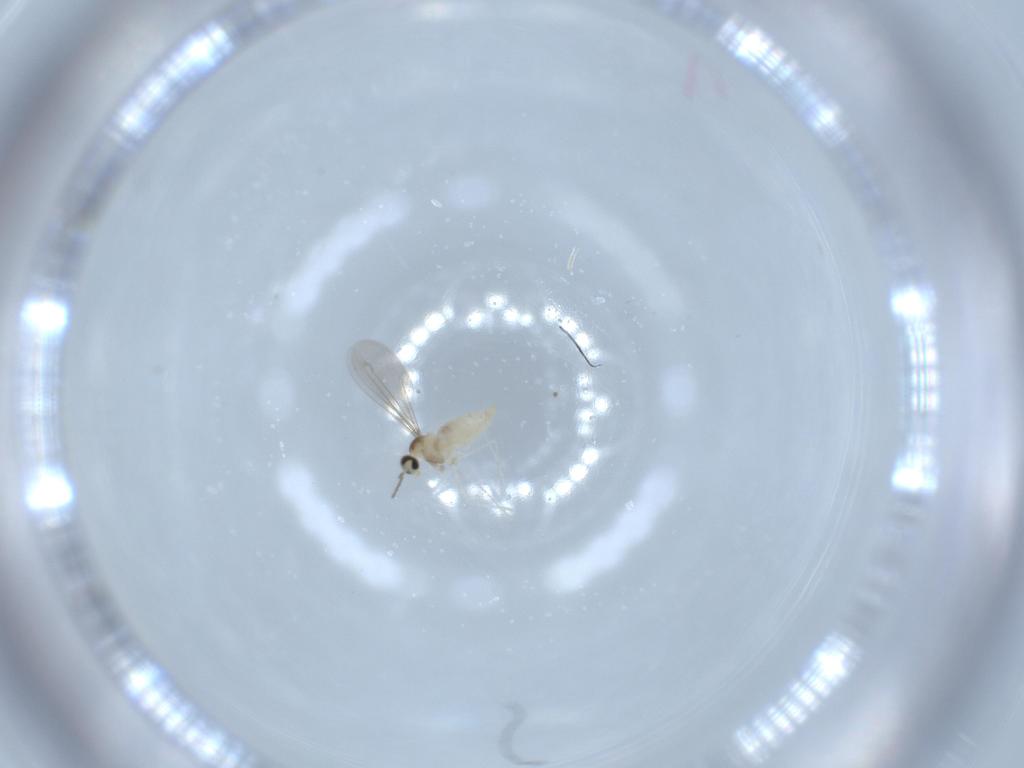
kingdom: Animalia
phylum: Arthropoda
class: Insecta
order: Diptera
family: Cecidomyiidae
